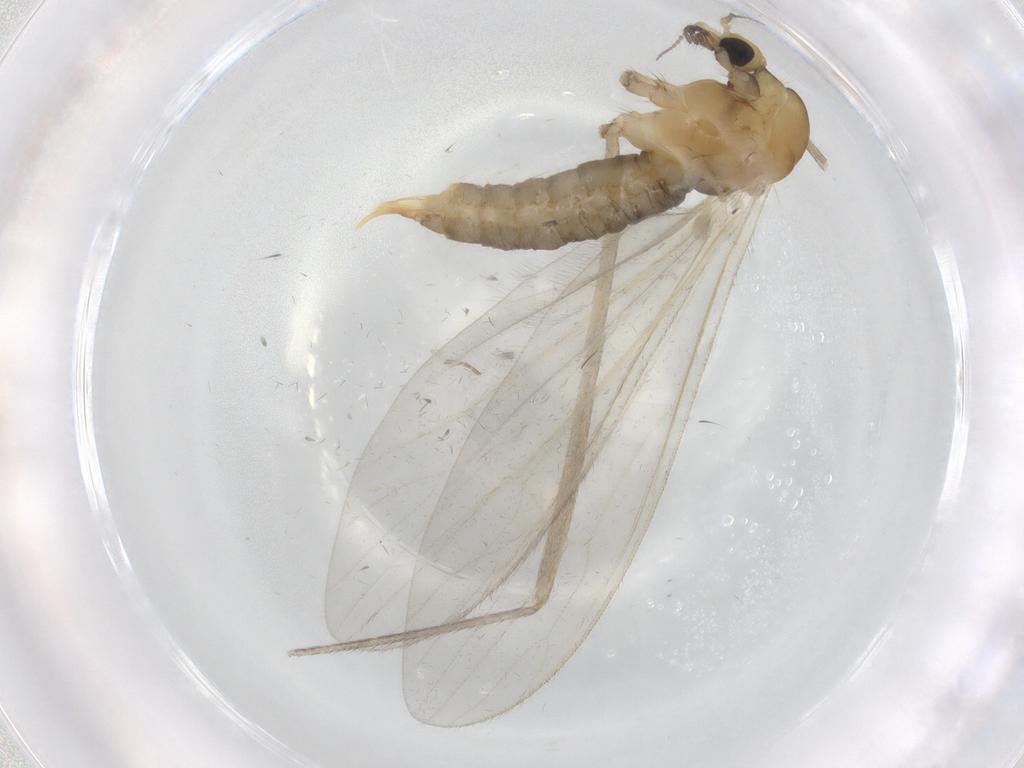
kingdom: Animalia
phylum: Arthropoda
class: Insecta
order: Diptera
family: Limoniidae
